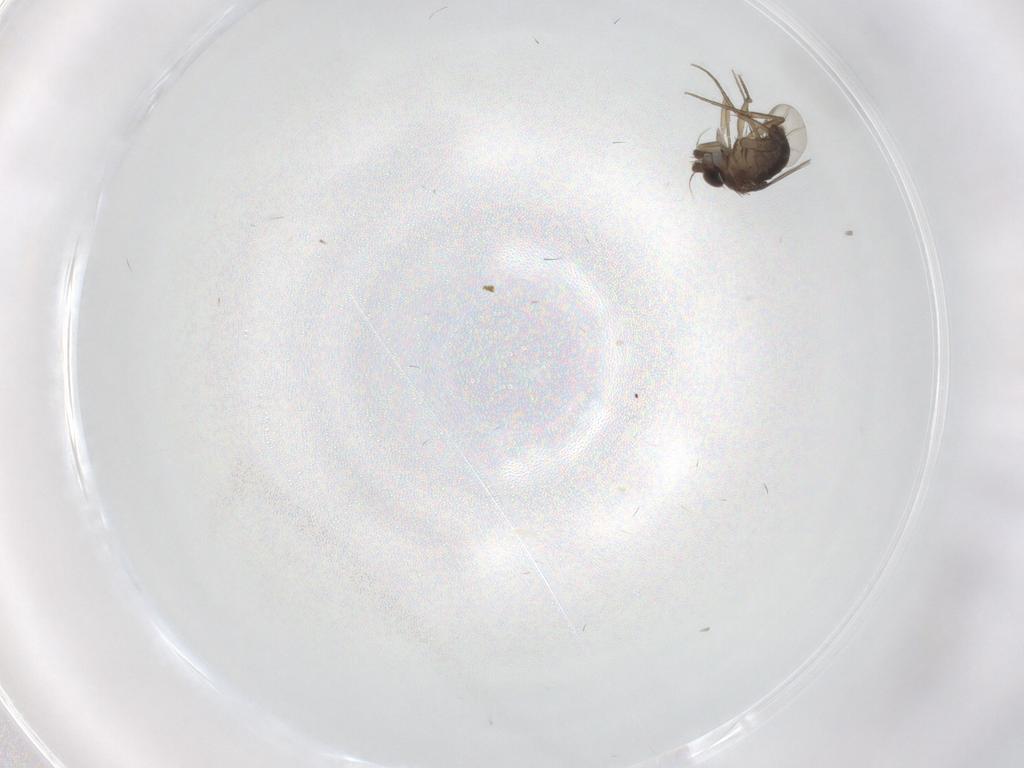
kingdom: Animalia
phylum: Arthropoda
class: Insecta
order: Diptera
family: Phoridae
